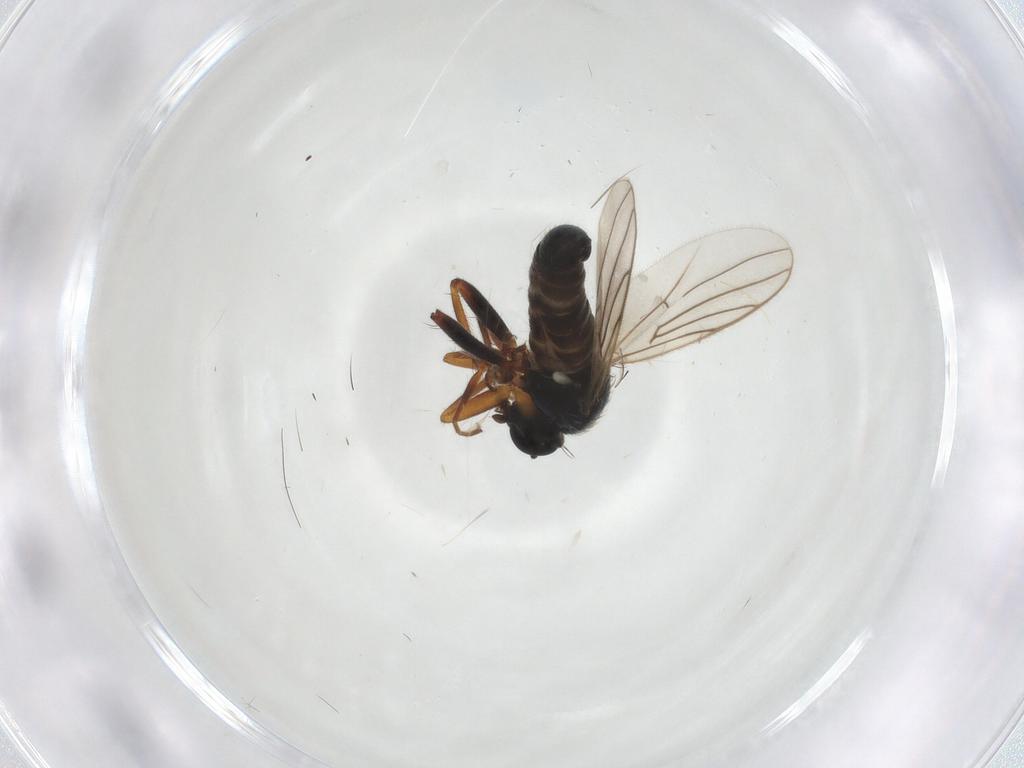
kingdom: Animalia
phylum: Arthropoda
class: Insecta
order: Diptera
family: Hybotidae
